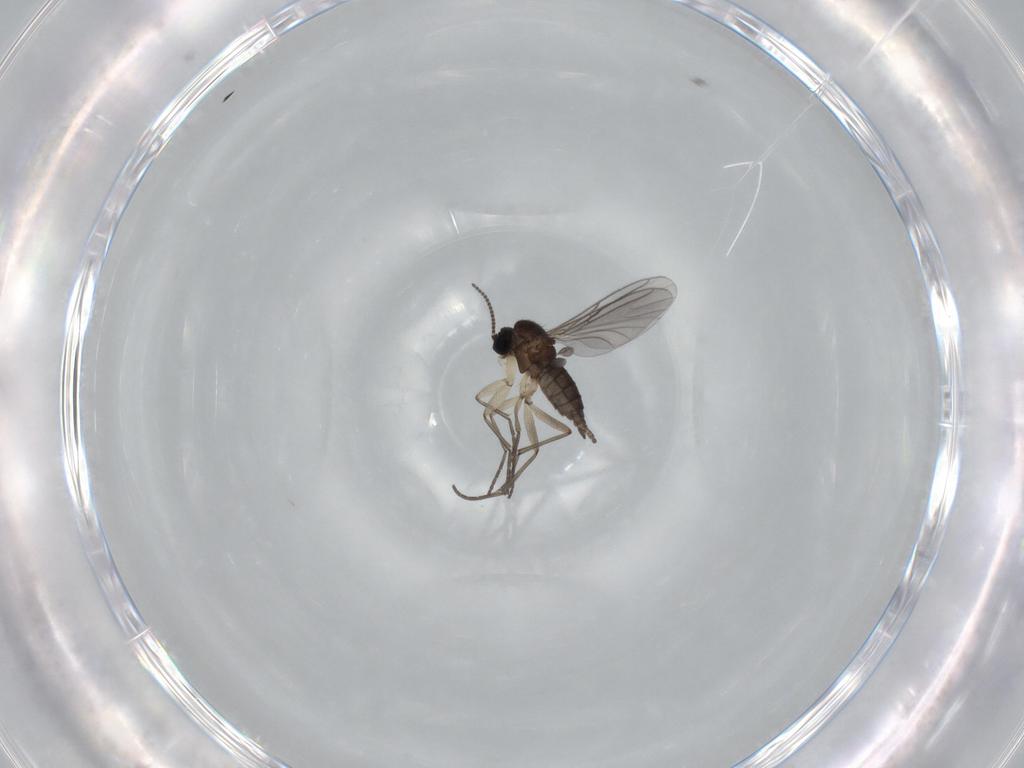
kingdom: Animalia
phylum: Arthropoda
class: Insecta
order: Diptera
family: Sciaridae
